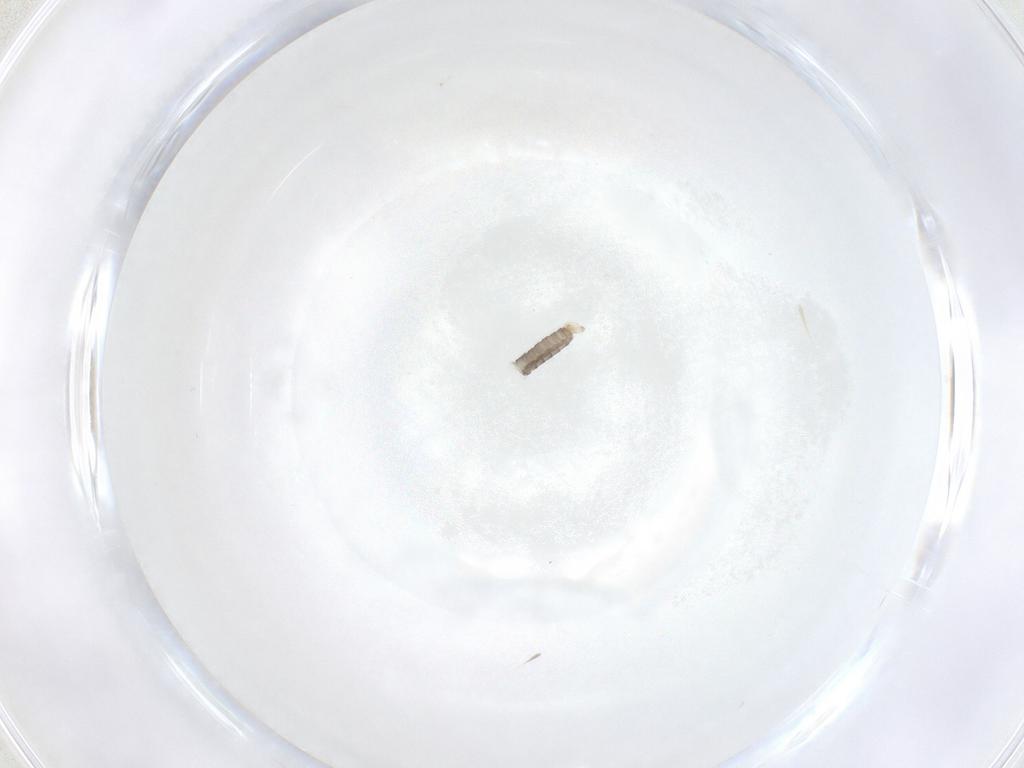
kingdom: Animalia
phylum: Arthropoda
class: Insecta
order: Diptera
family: Cecidomyiidae
